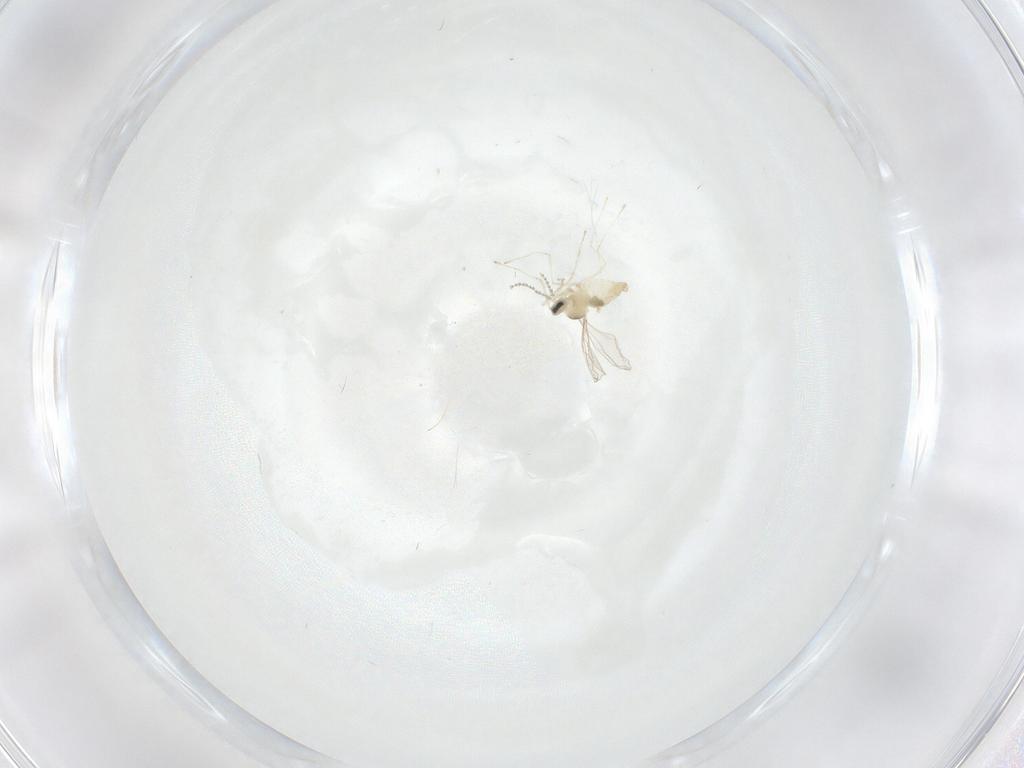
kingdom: Animalia
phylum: Arthropoda
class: Insecta
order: Diptera
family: Cecidomyiidae
